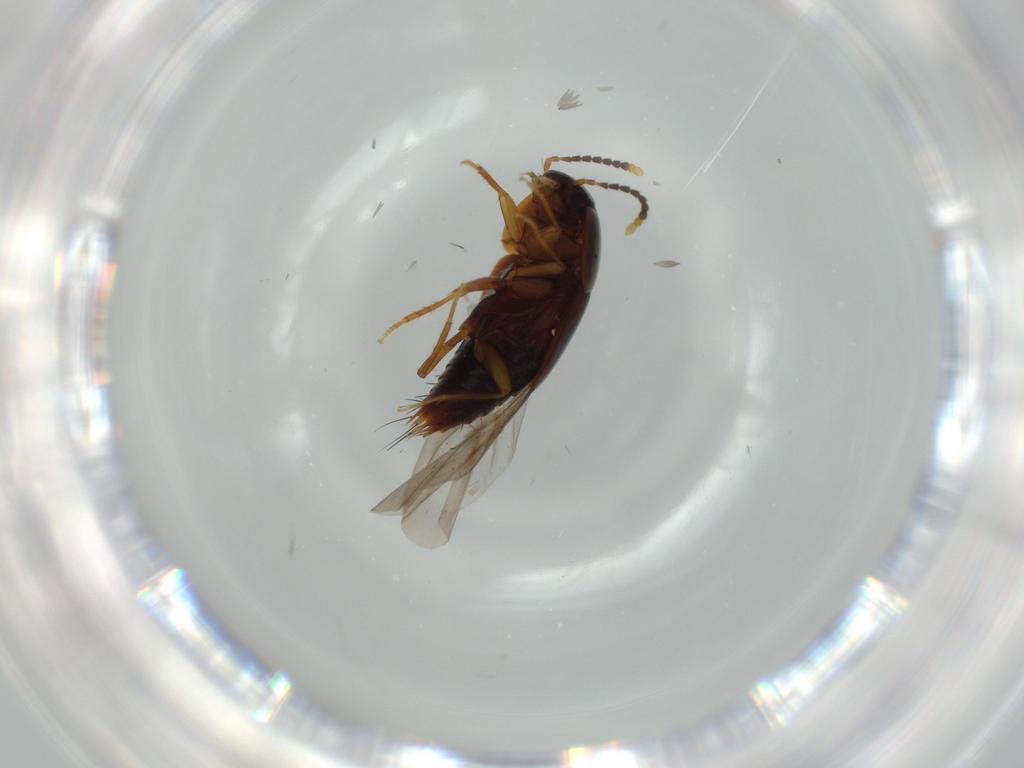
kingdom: Animalia
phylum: Arthropoda
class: Insecta
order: Coleoptera
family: Staphylinidae
